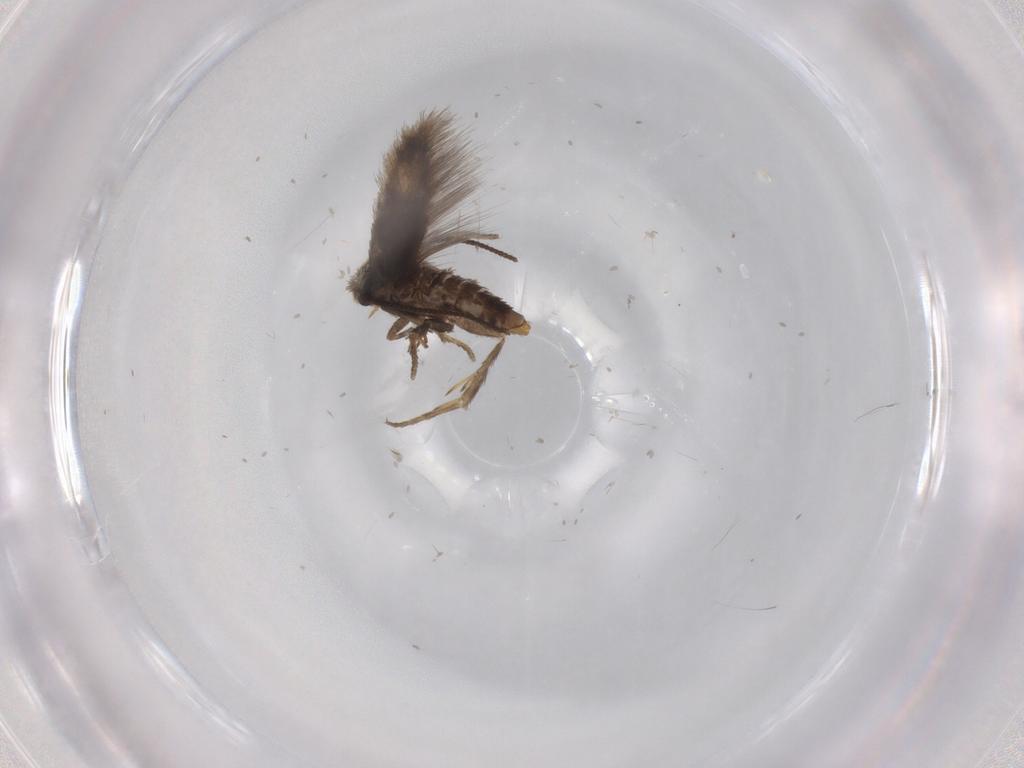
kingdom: Animalia
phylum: Arthropoda
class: Insecta
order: Lepidoptera
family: Nepticulidae
